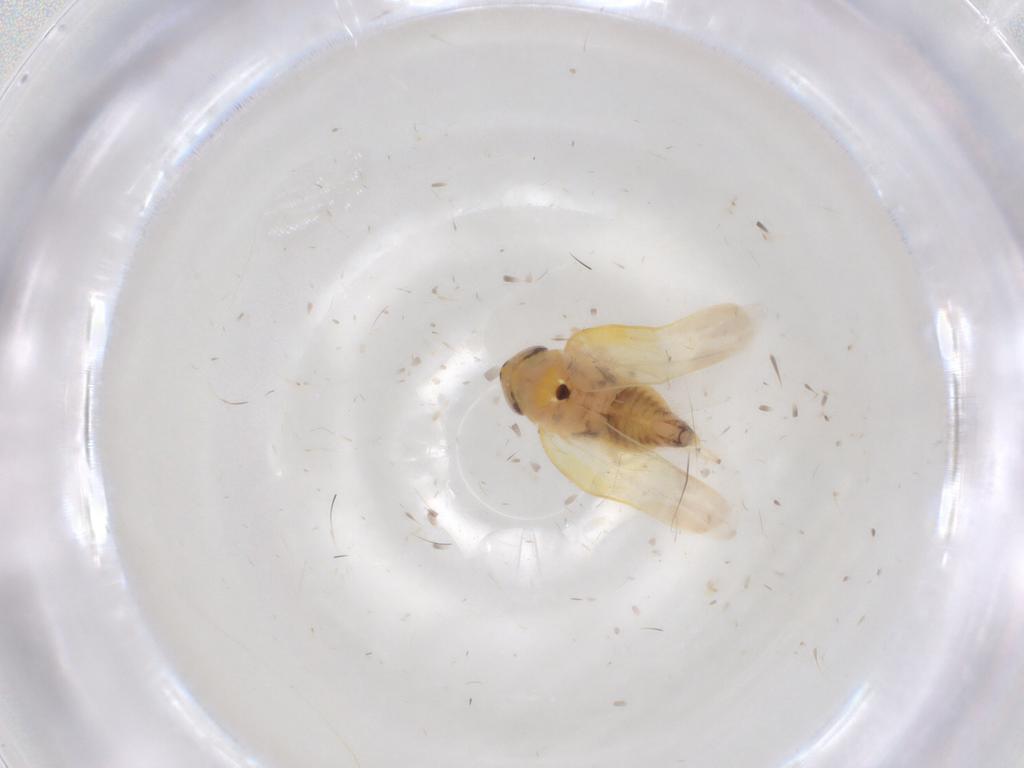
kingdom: Animalia
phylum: Arthropoda
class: Insecta
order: Hemiptera
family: Cicadellidae
